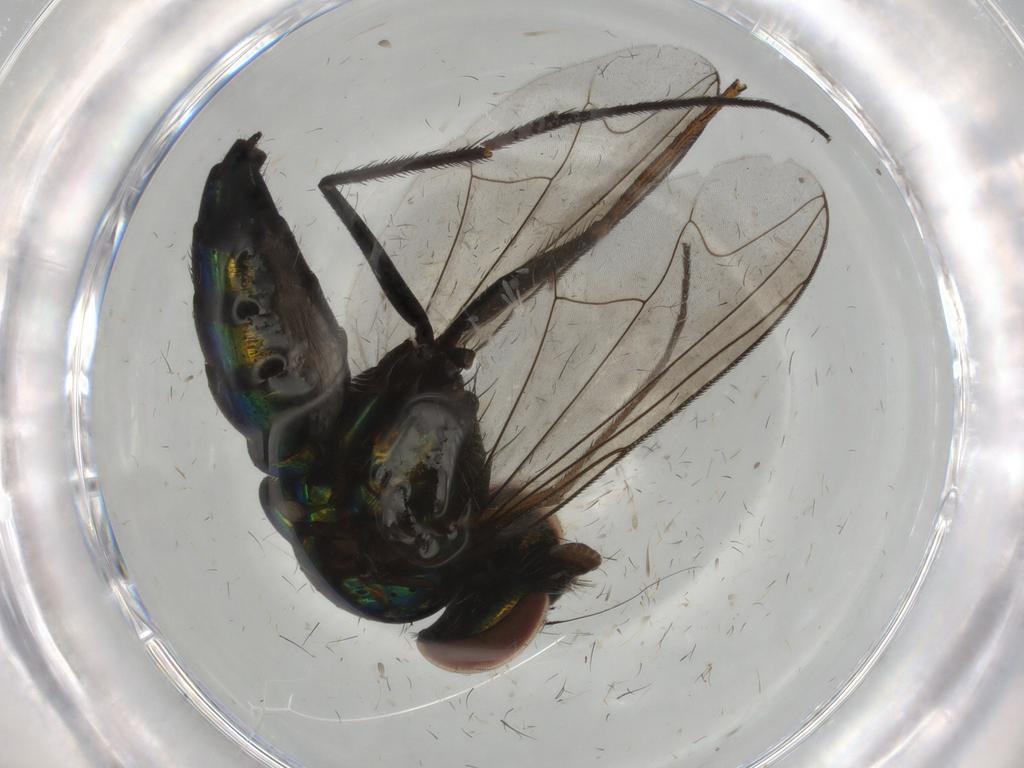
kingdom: Animalia
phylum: Arthropoda
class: Insecta
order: Diptera
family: Dolichopodidae
